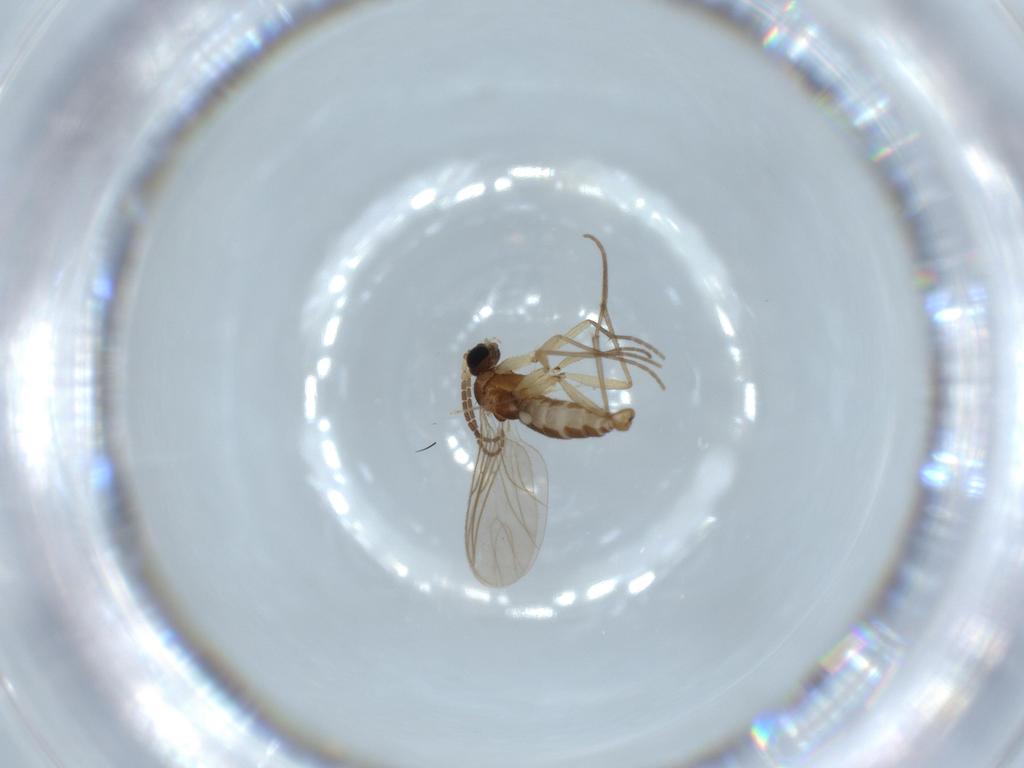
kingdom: Animalia
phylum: Arthropoda
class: Insecta
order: Diptera
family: Sciaridae
